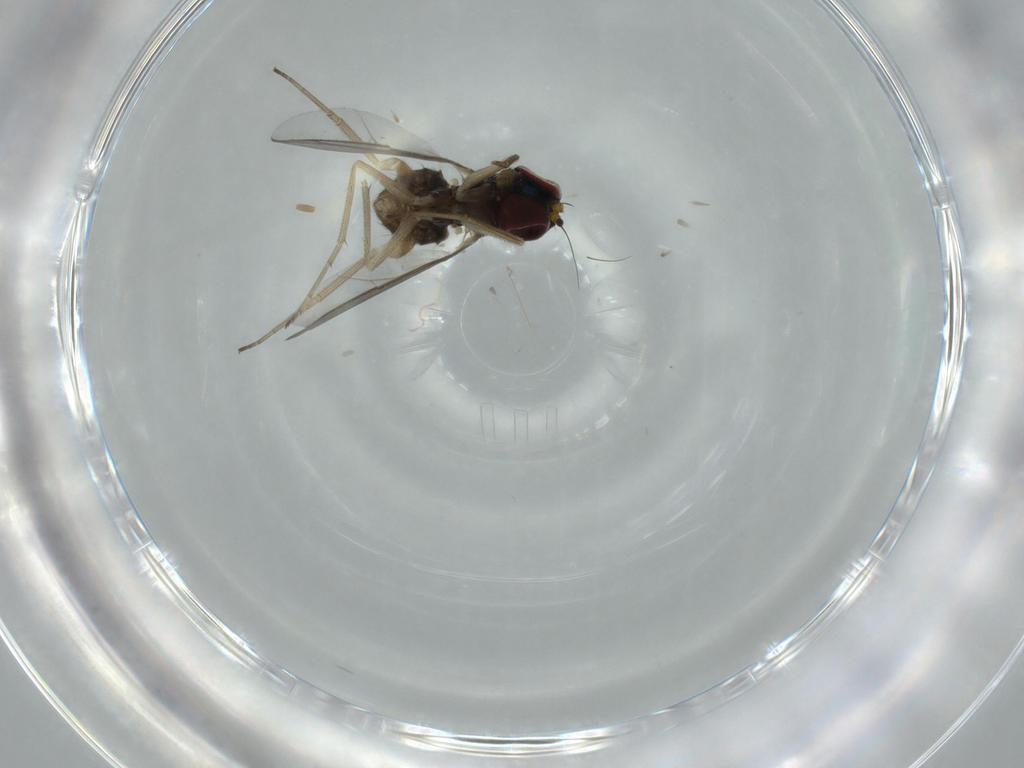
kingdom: Animalia
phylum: Arthropoda
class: Insecta
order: Diptera
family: Dolichopodidae
